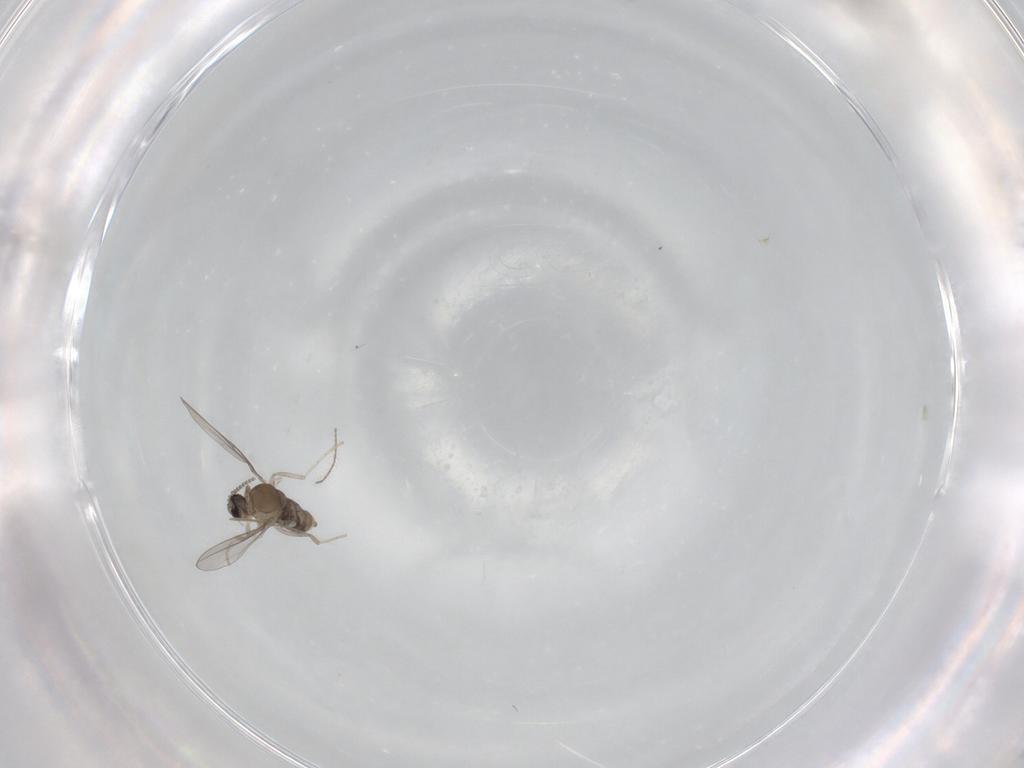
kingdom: Animalia
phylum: Arthropoda
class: Insecta
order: Diptera
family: Cecidomyiidae
